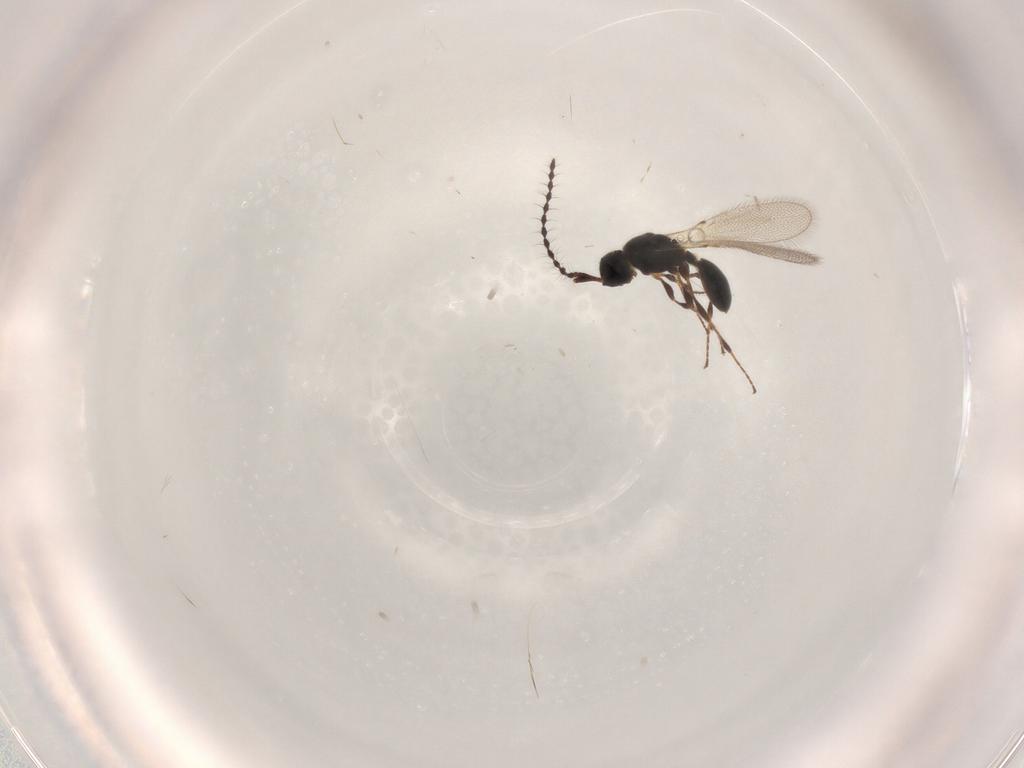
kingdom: Animalia
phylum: Arthropoda
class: Insecta
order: Hymenoptera
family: Diapriidae
